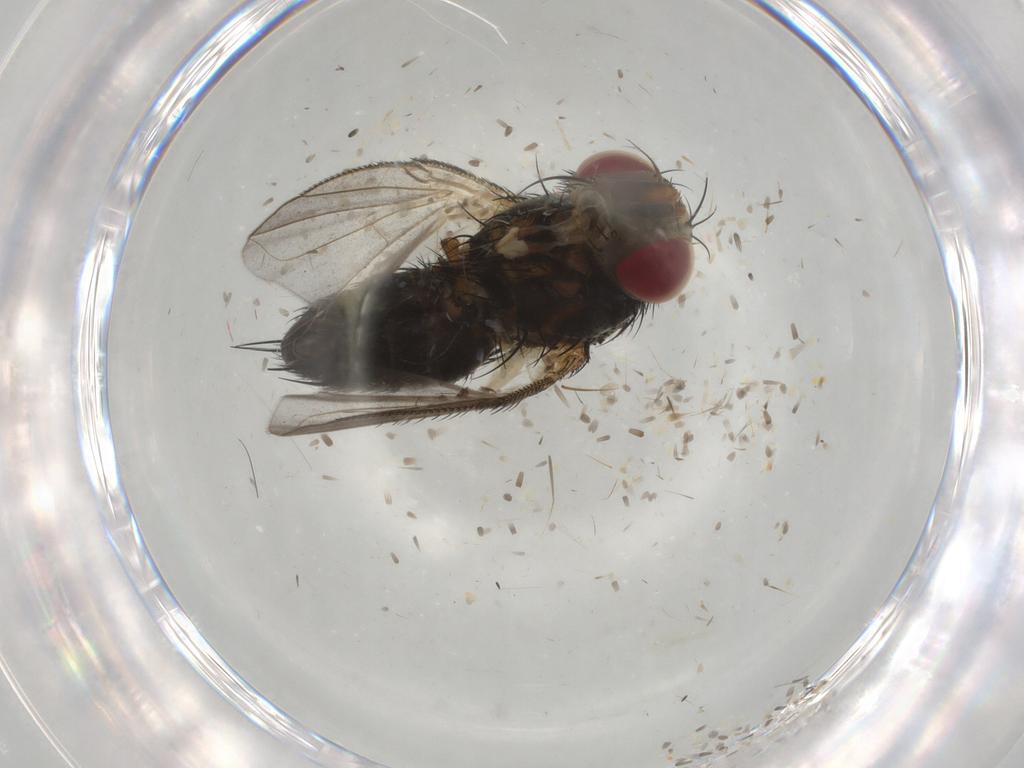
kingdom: Animalia
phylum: Arthropoda
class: Insecta
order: Diptera
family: Tachinidae
